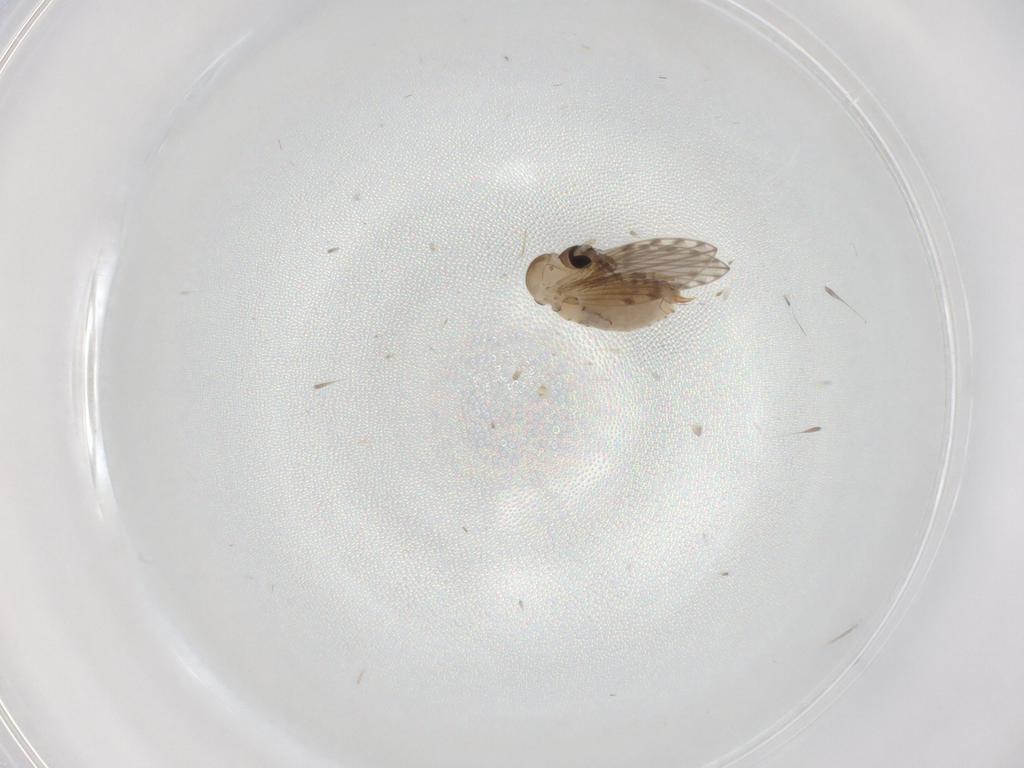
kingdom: Animalia
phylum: Arthropoda
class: Insecta
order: Diptera
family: Psychodidae
